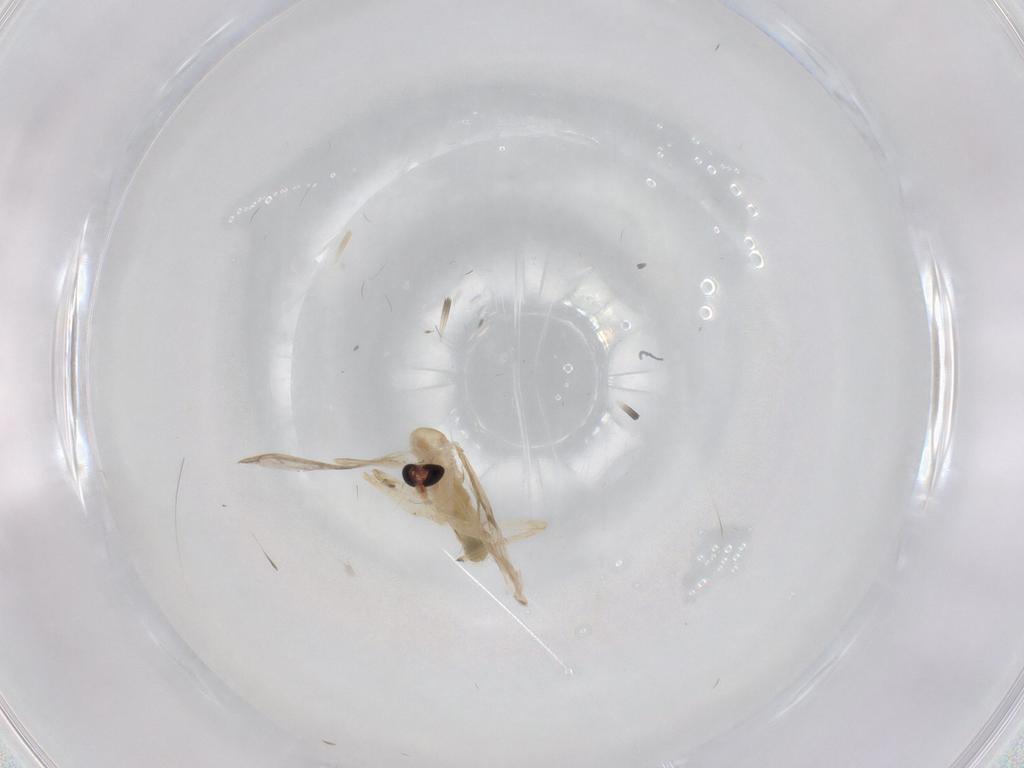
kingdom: Animalia
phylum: Arthropoda
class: Insecta
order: Diptera
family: Chironomidae
